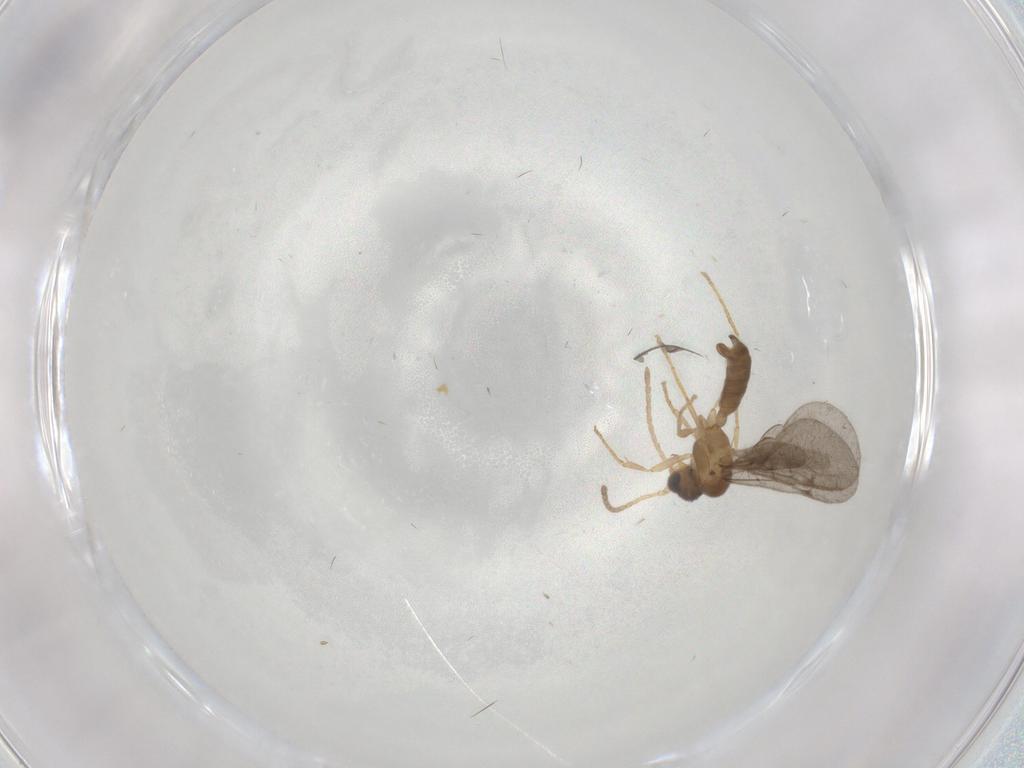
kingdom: Animalia
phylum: Arthropoda
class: Insecta
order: Hymenoptera
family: Formicidae
